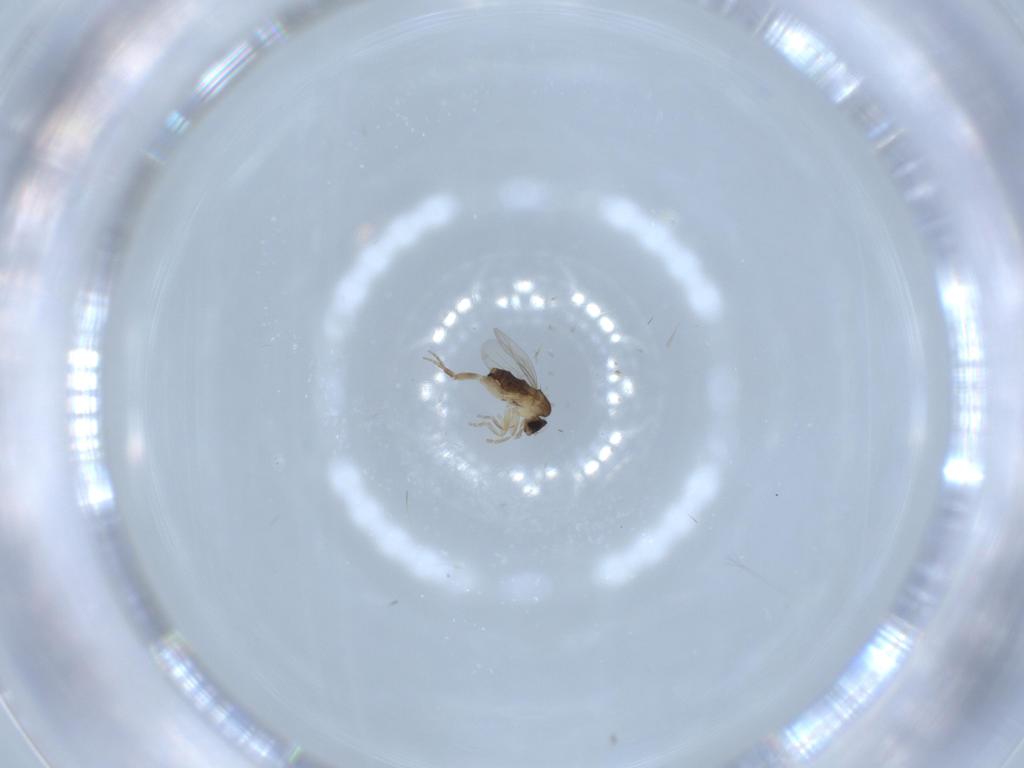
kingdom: Animalia
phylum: Arthropoda
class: Insecta
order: Diptera
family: Phoridae
